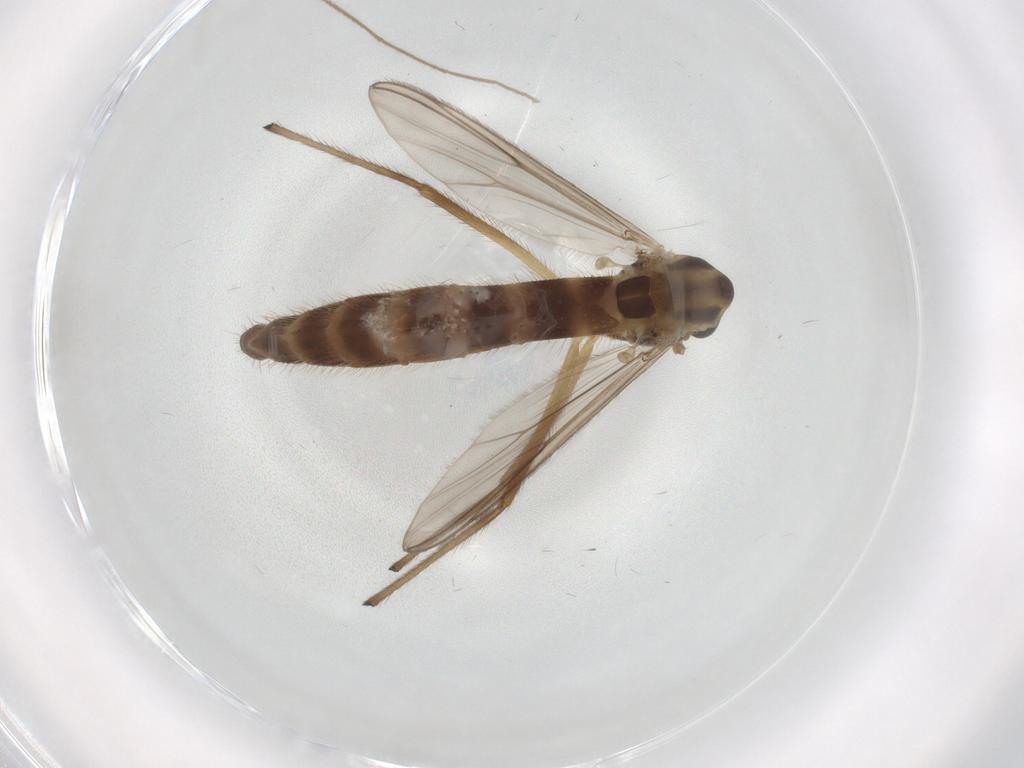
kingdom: Animalia
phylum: Arthropoda
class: Insecta
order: Diptera
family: Chironomidae
